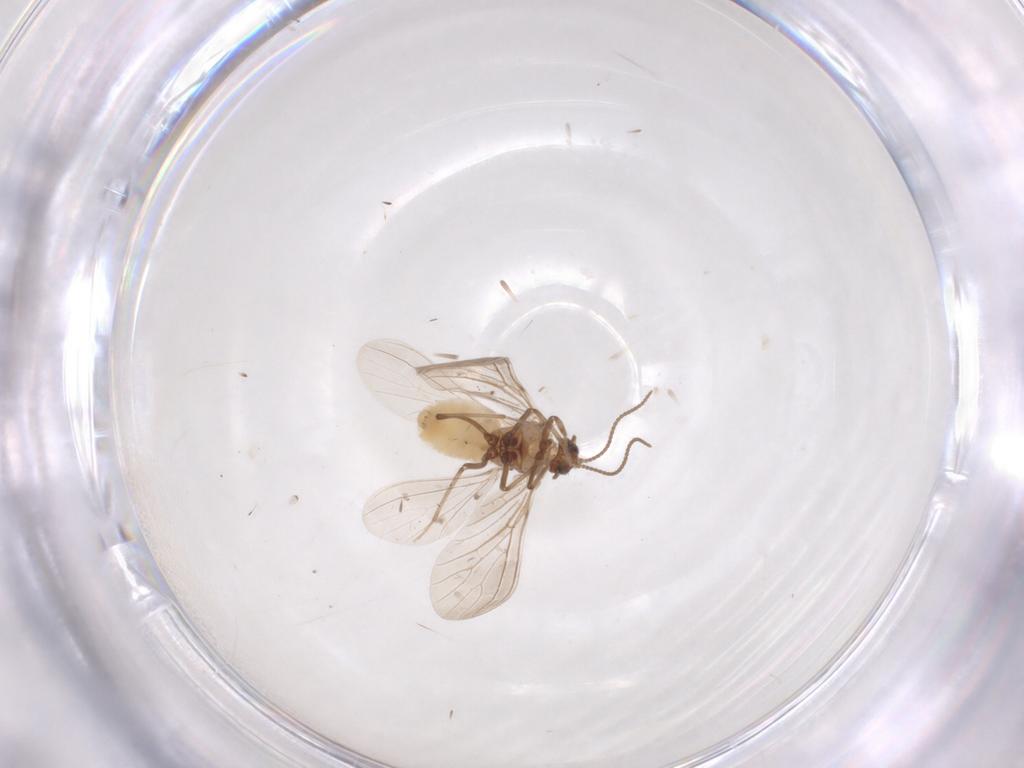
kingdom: Animalia
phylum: Arthropoda
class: Insecta
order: Neuroptera
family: Coniopterygidae
